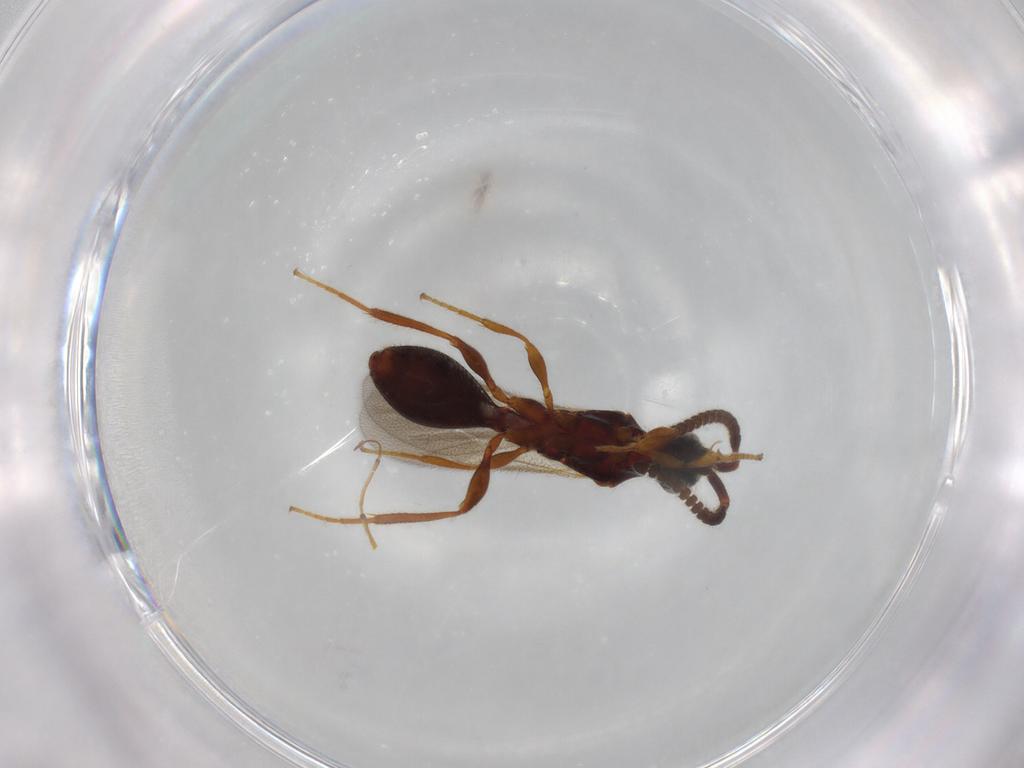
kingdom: Animalia
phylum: Arthropoda
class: Insecta
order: Hymenoptera
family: Diapriidae
